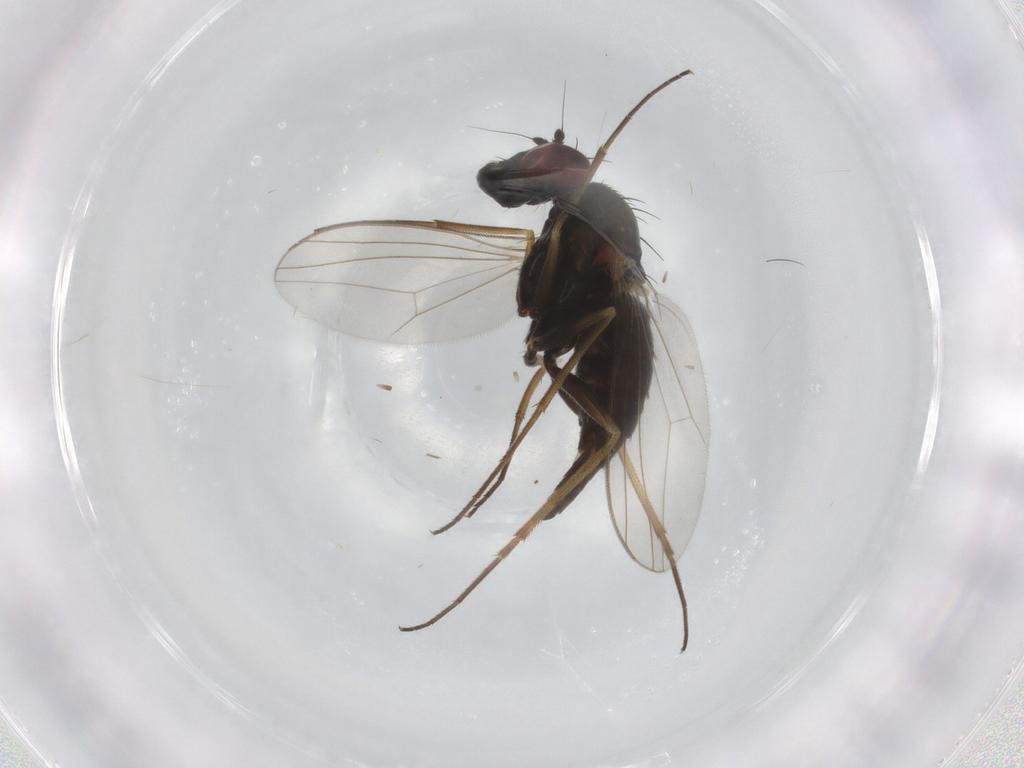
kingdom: Animalia
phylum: Arthropoda
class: Insecta
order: Diptera
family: Dolichopodidae
